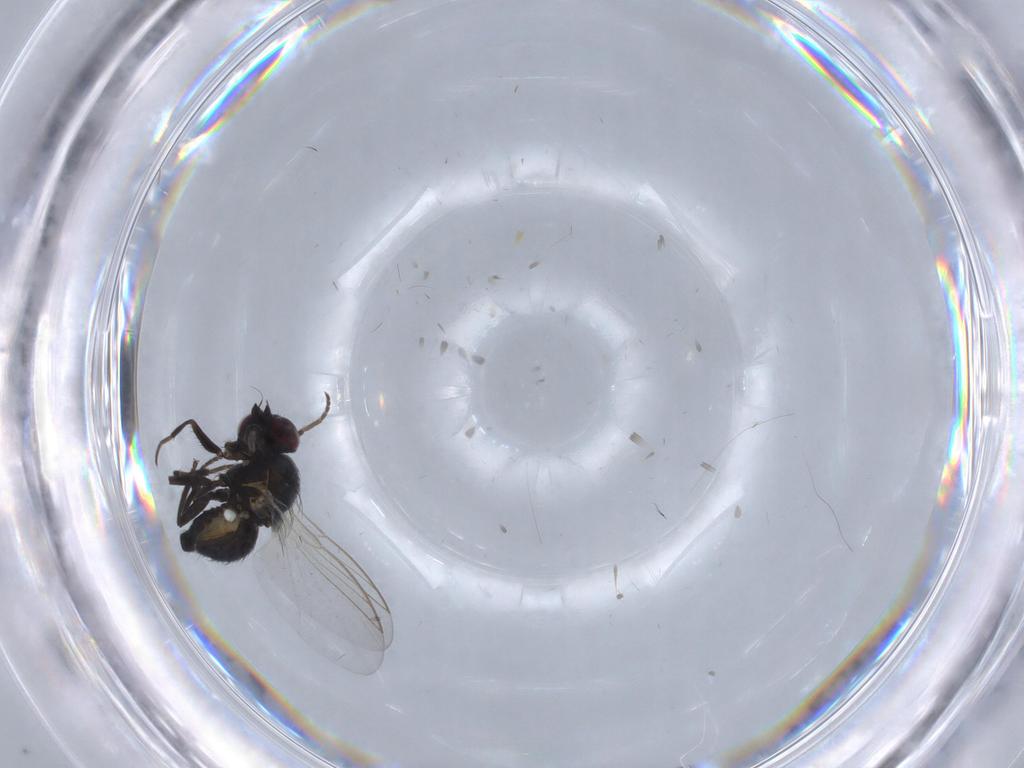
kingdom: Animalia
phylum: Arthropoda
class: Insecta
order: Diptera
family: Agromyzidae
